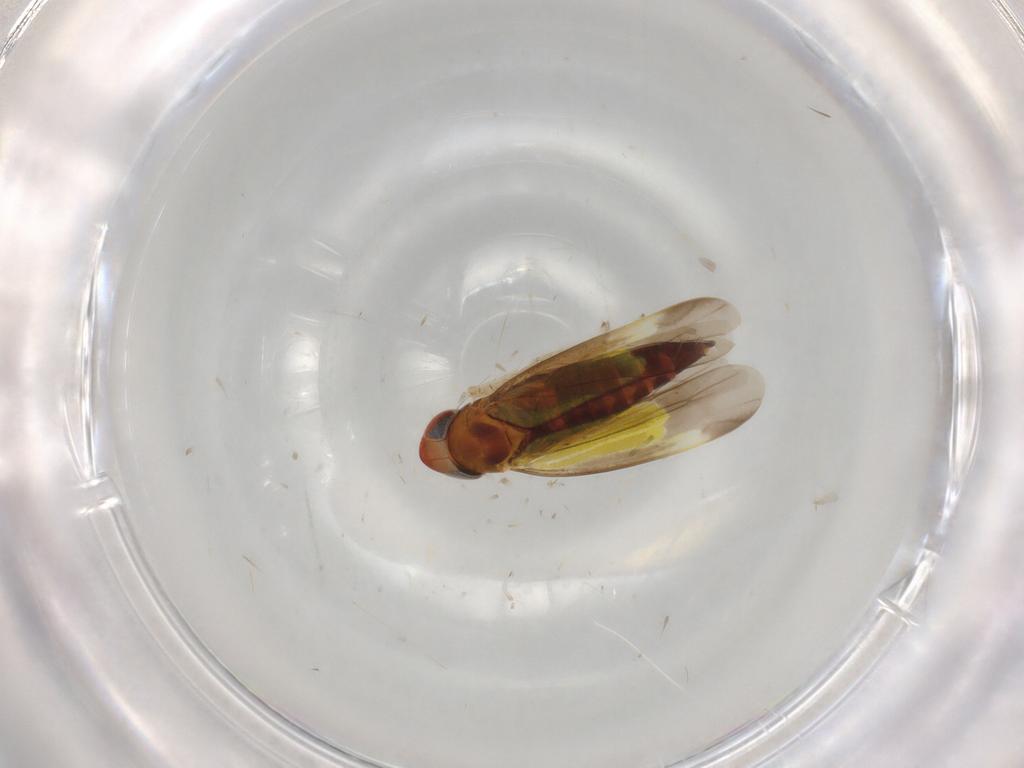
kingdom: Animalia
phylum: Arthropoda
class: Insecta
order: Hemiptera
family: Cicadellidae
